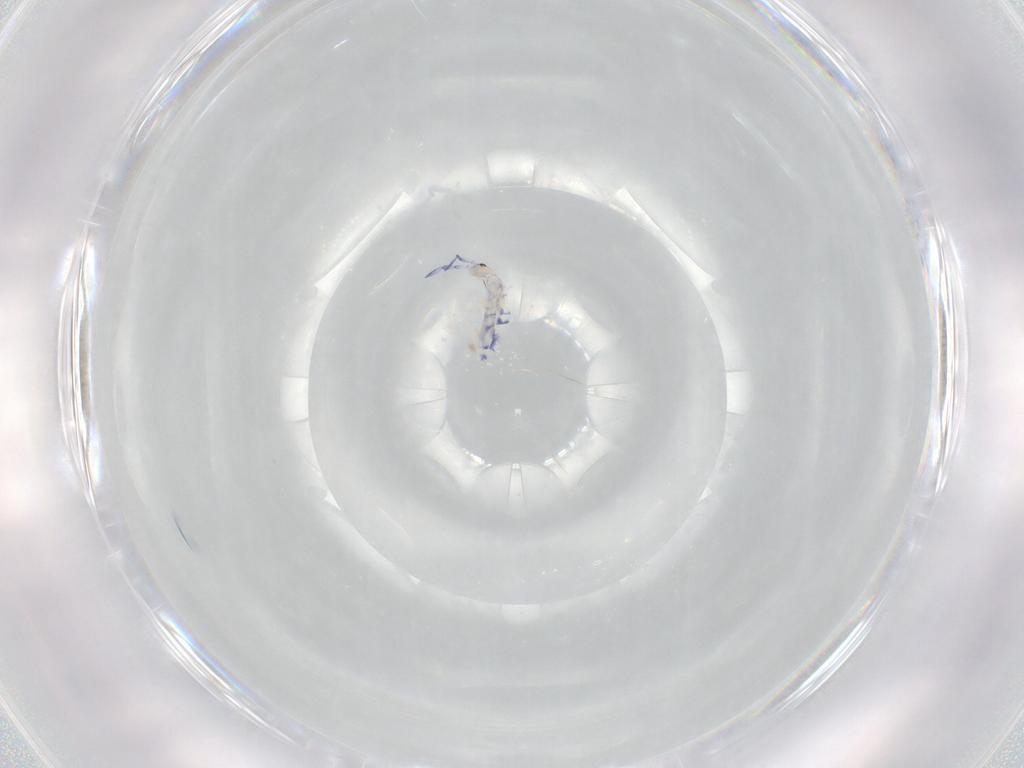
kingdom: Animalia
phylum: Arthropoda
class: Collembola
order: Entomobryomorpha
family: Entomobryidae
